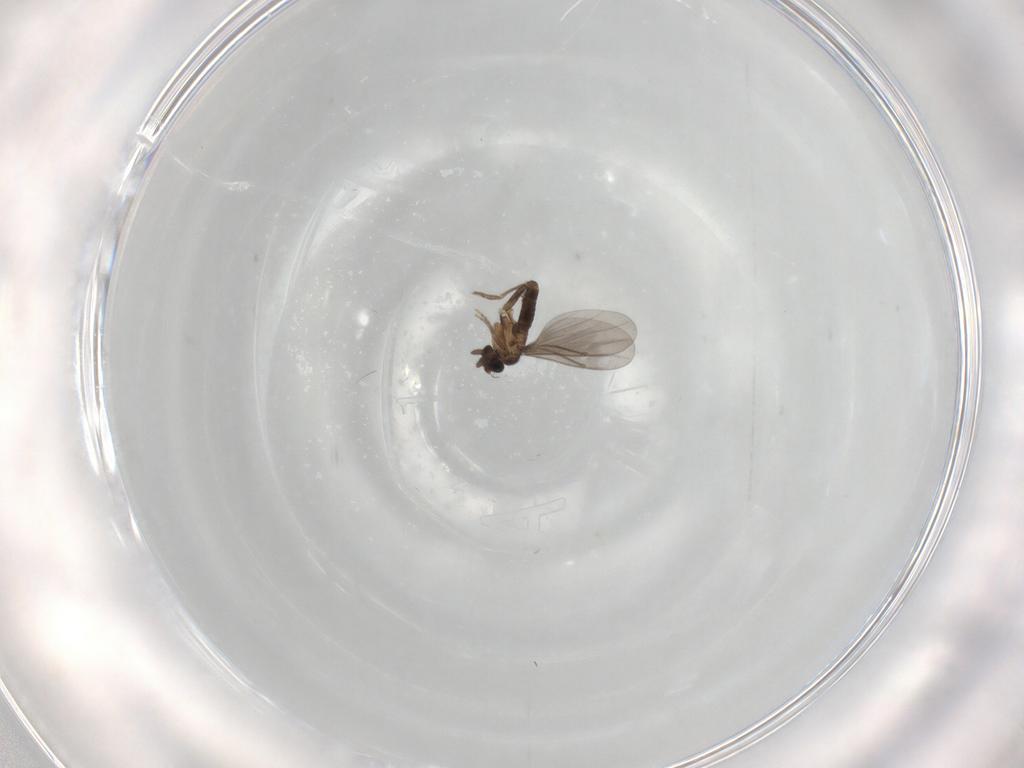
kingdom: Animalia
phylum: Arthropoda
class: Insecta
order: Diptera
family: Drosophilidae
